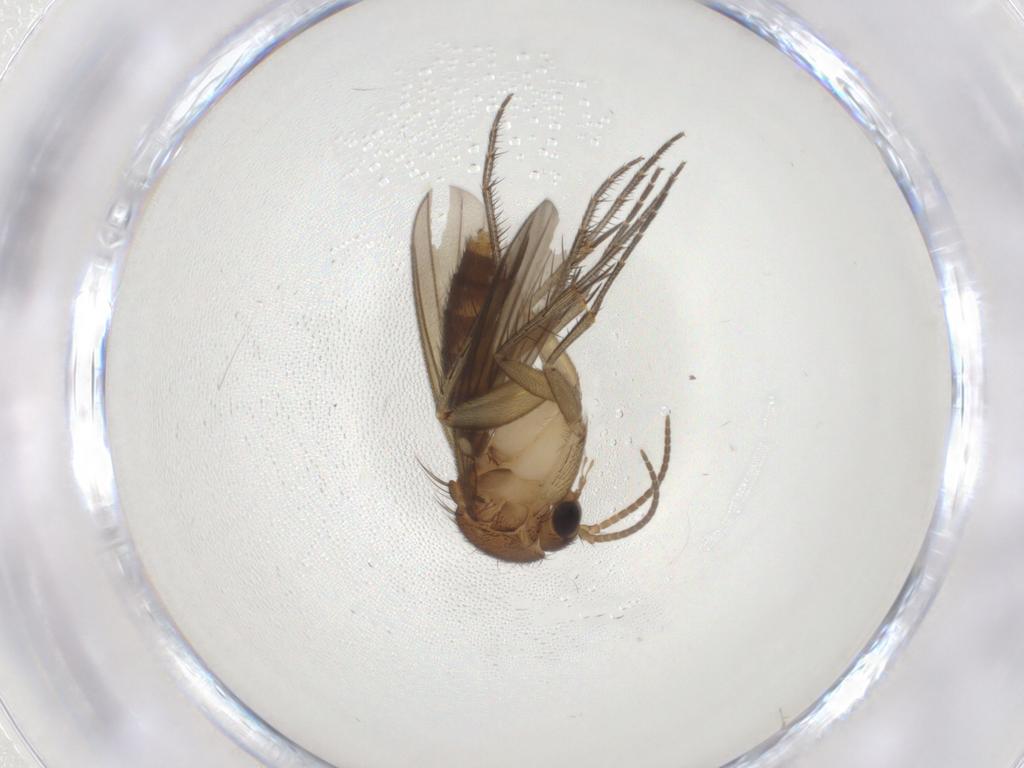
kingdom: Animalia
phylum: Arthropoda
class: Insecta
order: Diptera
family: Mycetophilidae
